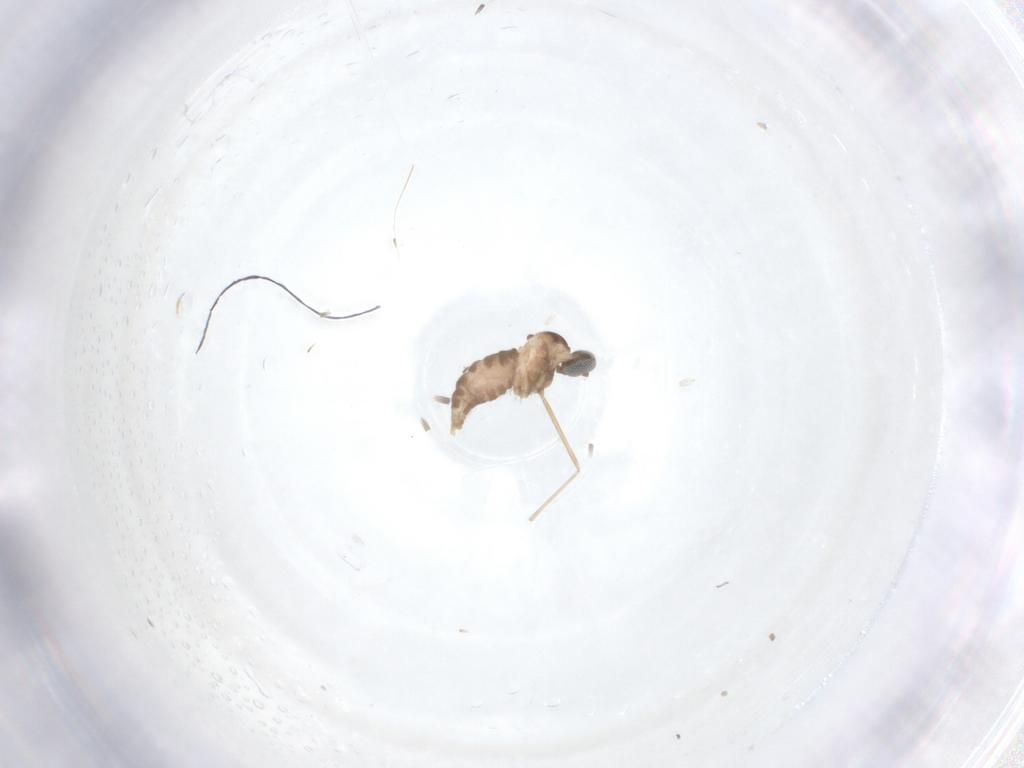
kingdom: Animalia
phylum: Arthropoda
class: Insecta
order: Diptera
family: Cecidomyiidae
